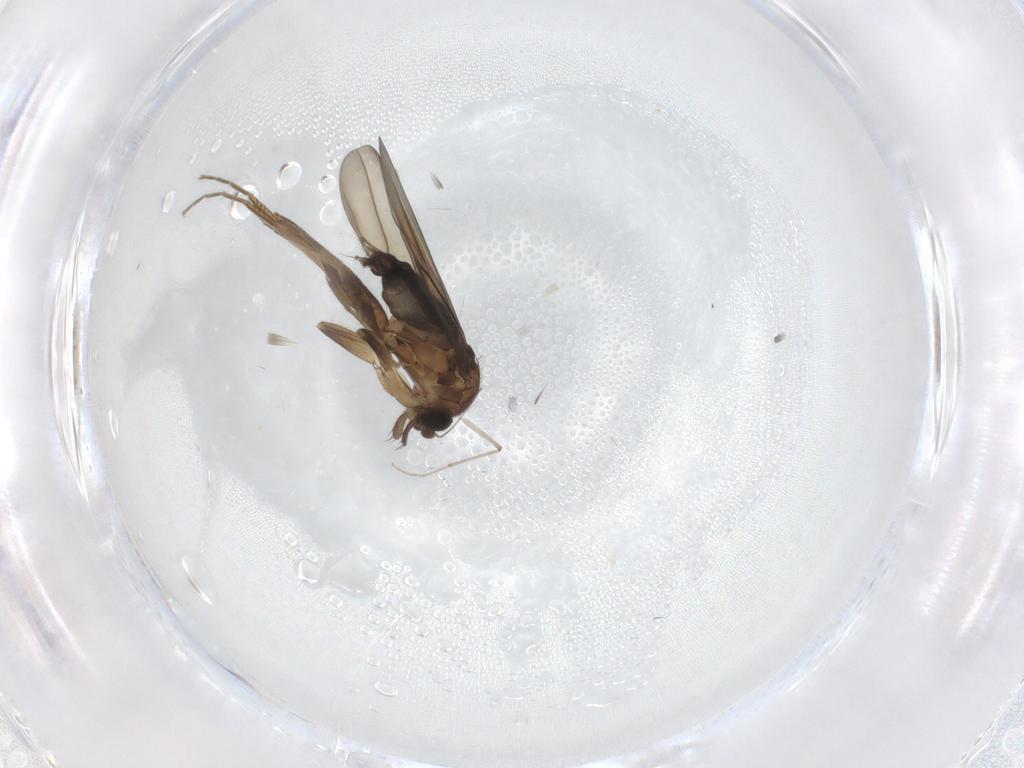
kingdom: Animalia
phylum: Arthropoda
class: Insecta
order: Diptera
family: Phoridae
